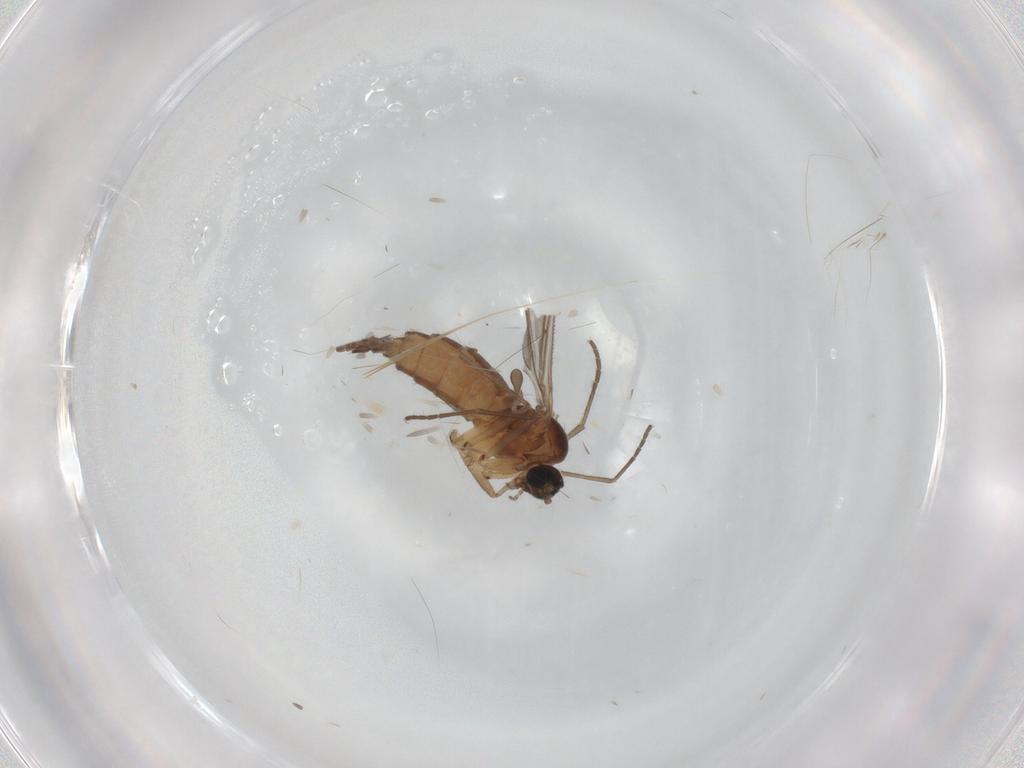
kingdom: Animalia
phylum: Arthropoda
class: Insecta
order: Diptera
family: Sciaridae
